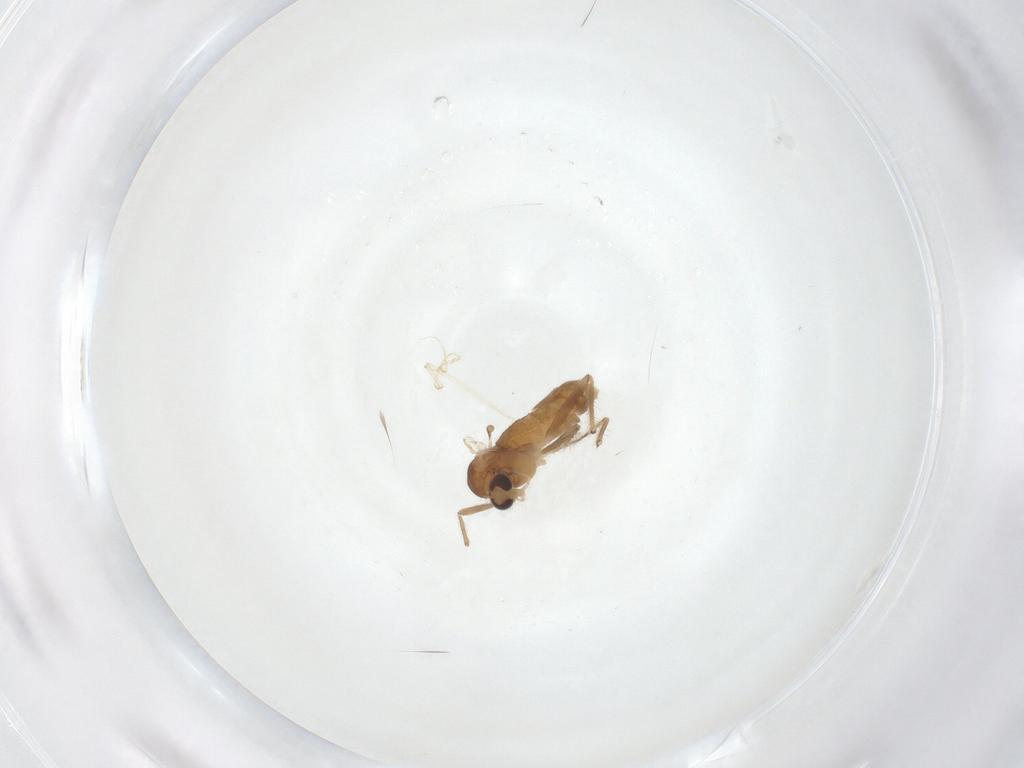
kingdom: Animalia
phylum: Arthropoda
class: Insecta
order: Diptera
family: Chironomidae
